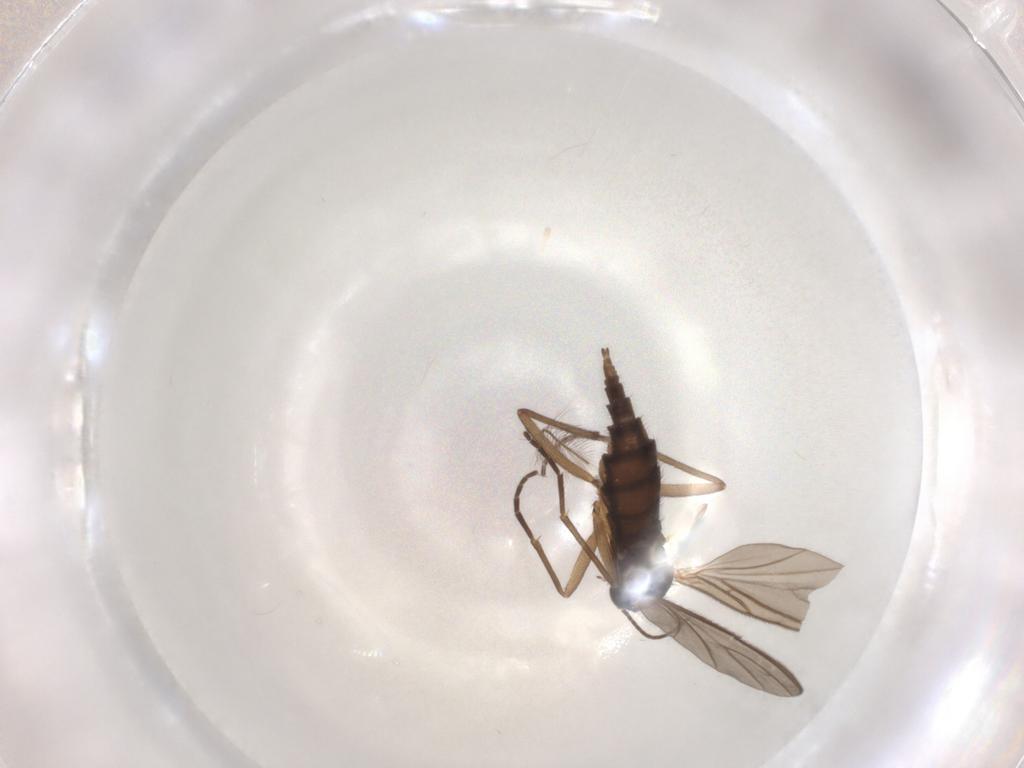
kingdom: Animalia
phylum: Arthropoda
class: Insecta
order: Diptera
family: Sciaridae
